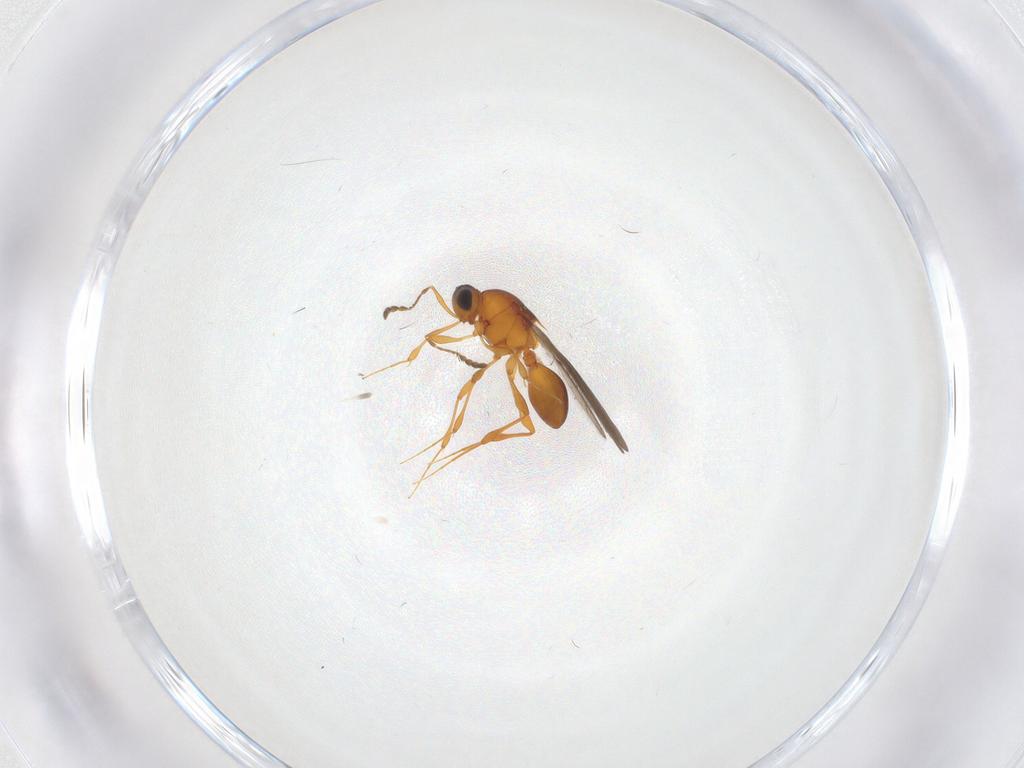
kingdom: Animalia
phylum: Arthropoda
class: Insecta
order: Hymenoptera
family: Platygastridae
